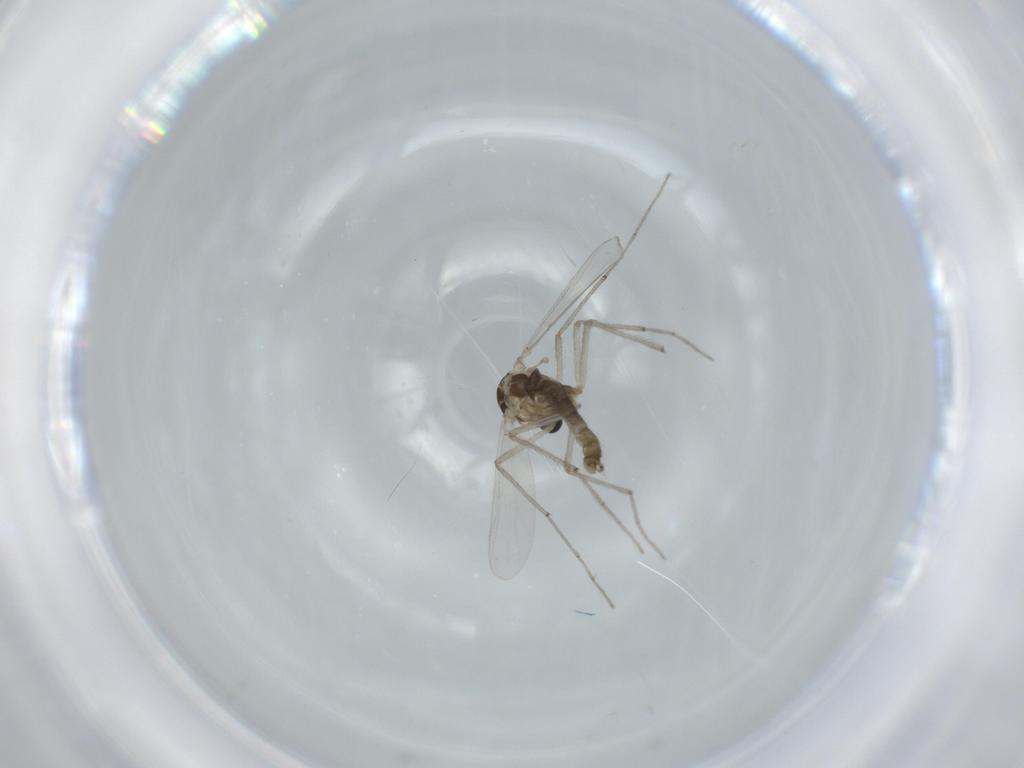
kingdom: Animalia
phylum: Arthropoda
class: Insecta
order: Diptera
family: Chironomidae
